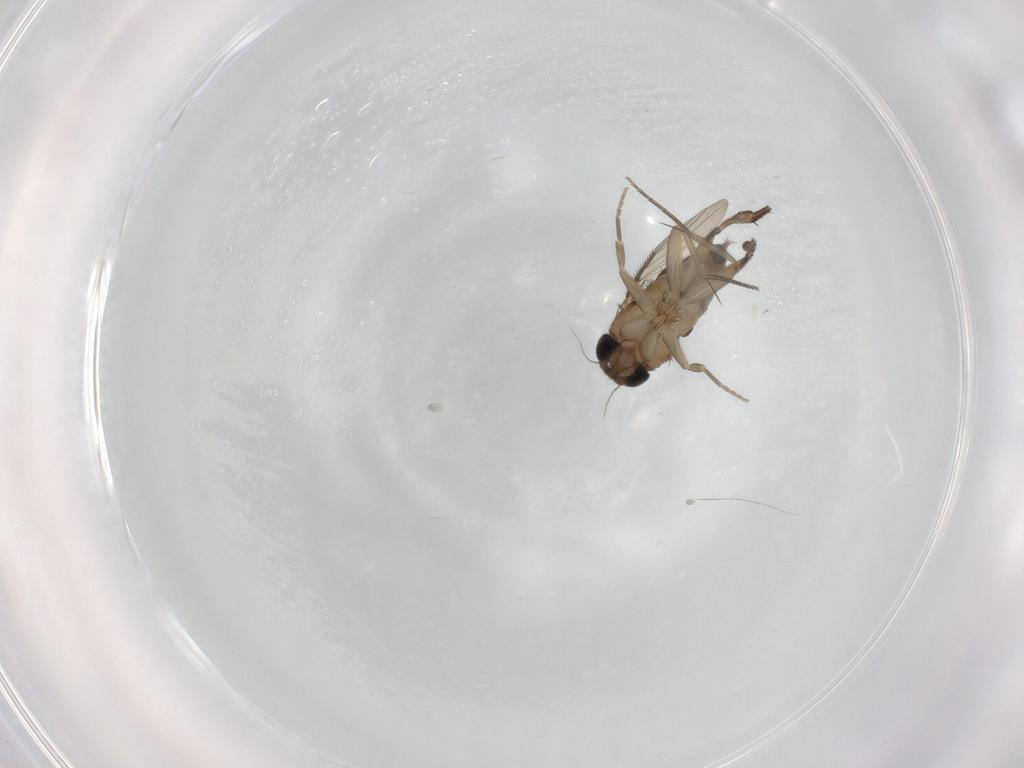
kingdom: Animalia
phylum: Arthropoda
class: Insecta
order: Diptera
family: Phoridae
